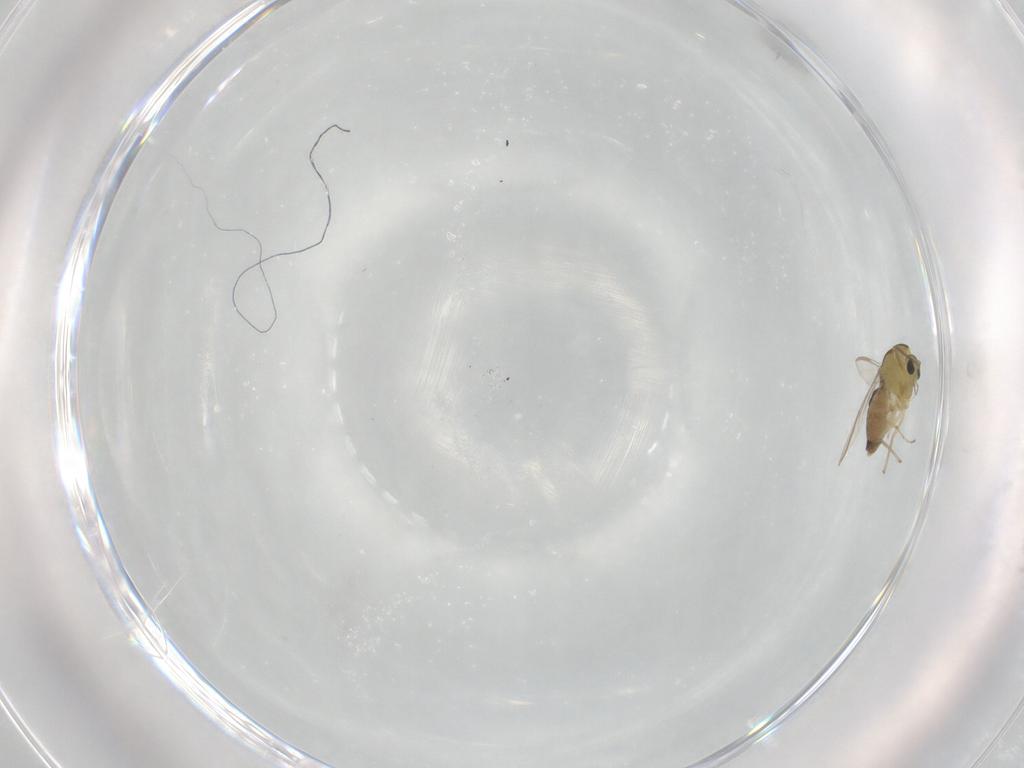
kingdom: Animalia
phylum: Arthropoda
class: Insecta
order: Diptera
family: Chironomidae
